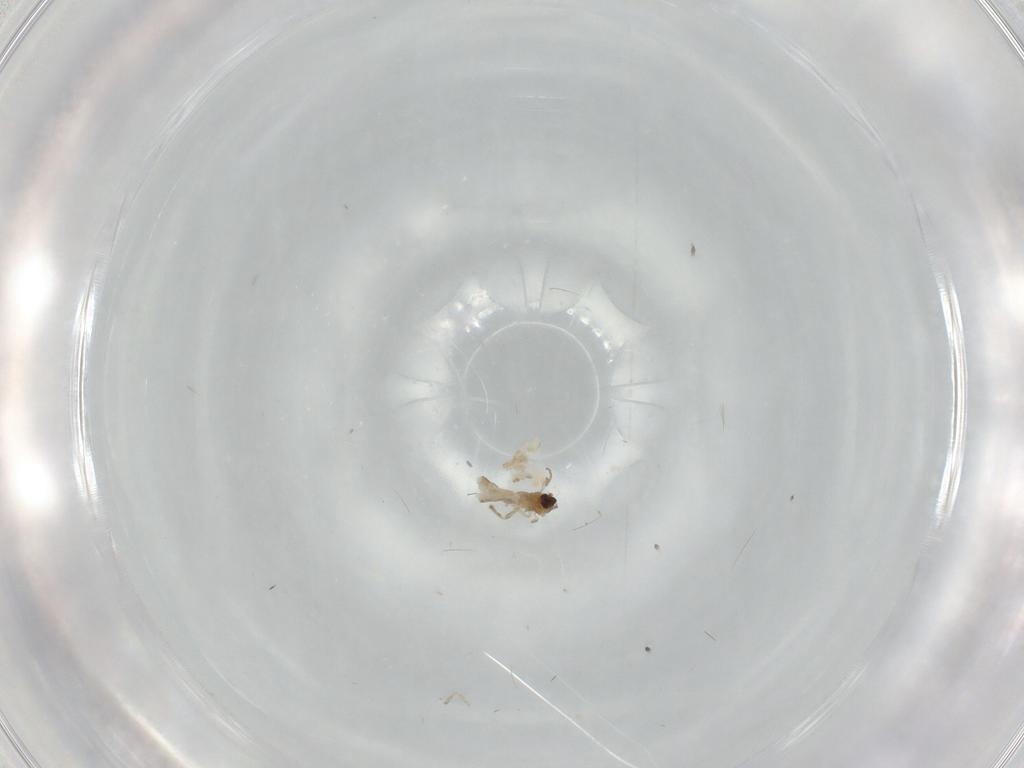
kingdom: Animalia
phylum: Arthropoda
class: Insecta
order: Diptera
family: Cecidomyiidae
